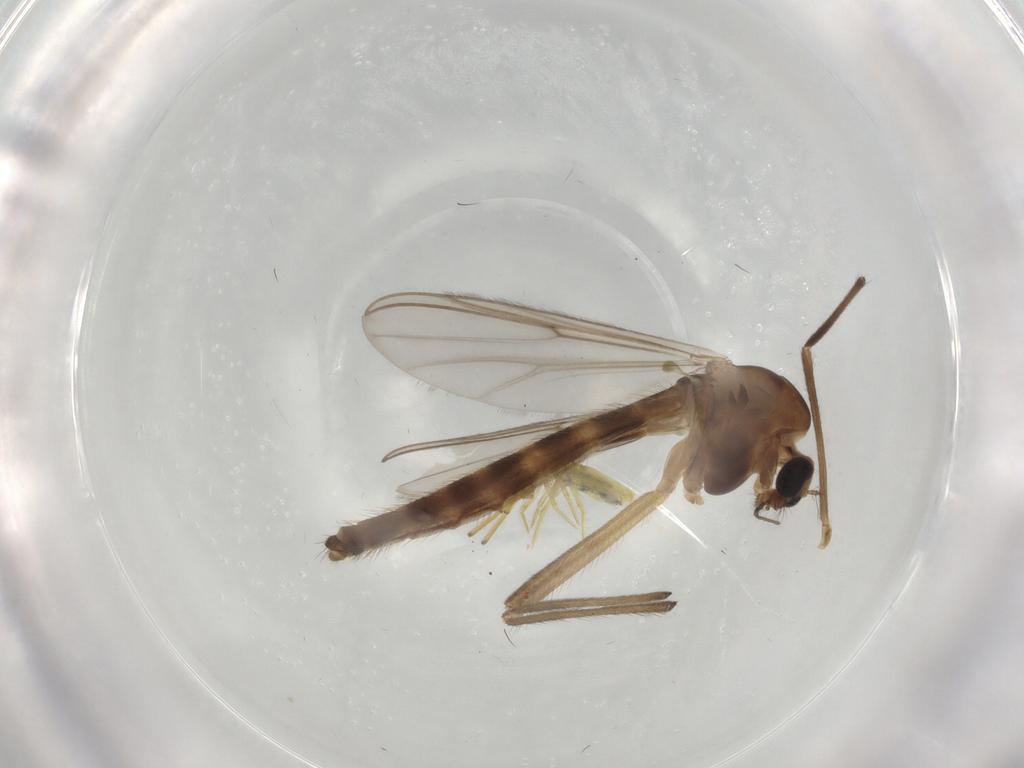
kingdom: Animalia
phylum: Arthropoda
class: Insecta
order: Diptera
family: Chironomidae
